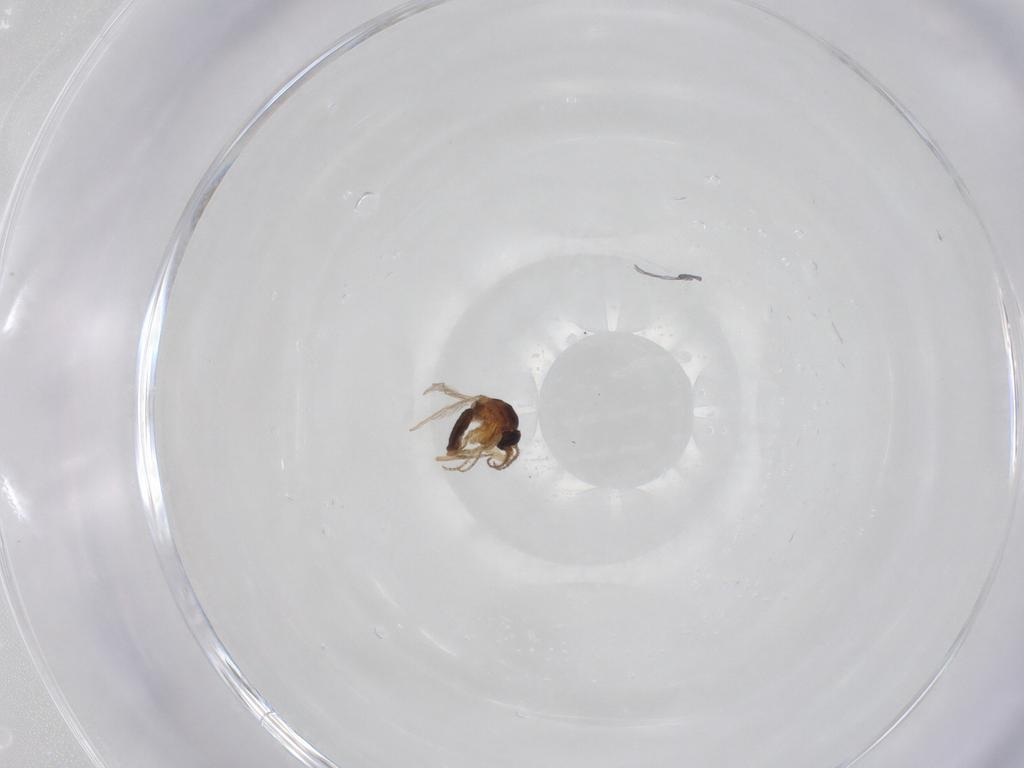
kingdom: Animalia
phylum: Arthropoda
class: Insecta
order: Diptera
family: Ceratopogonidae
